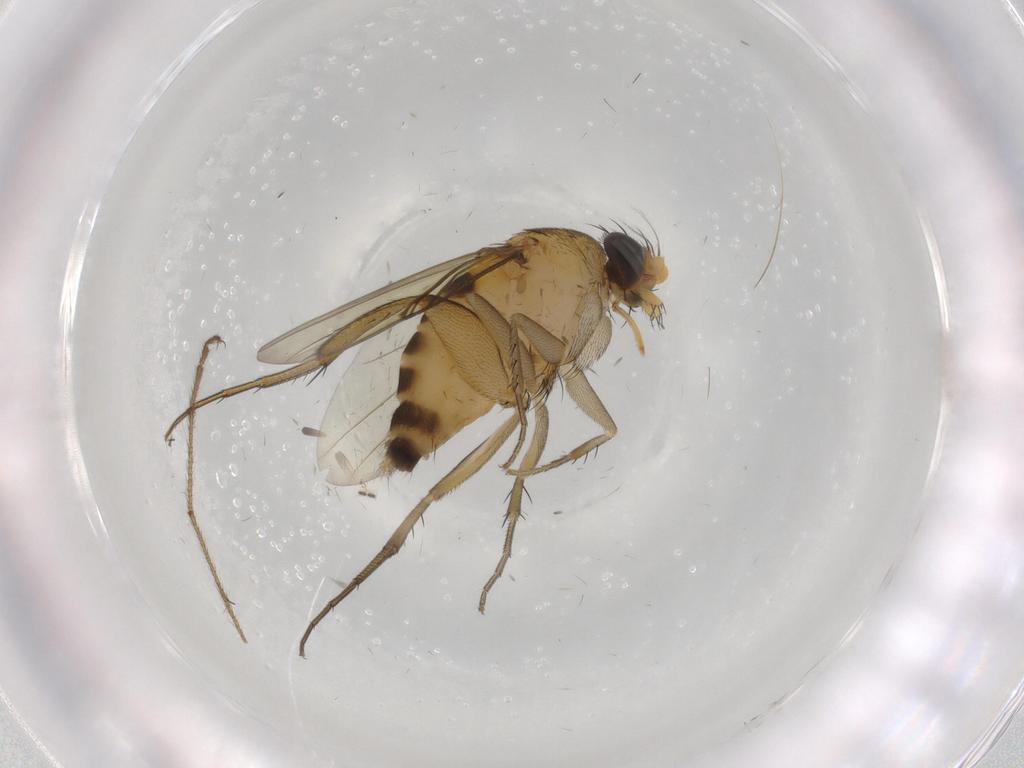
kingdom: Animalia
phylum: Arthropoda
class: Insecta
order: Diptera
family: Phoridae
